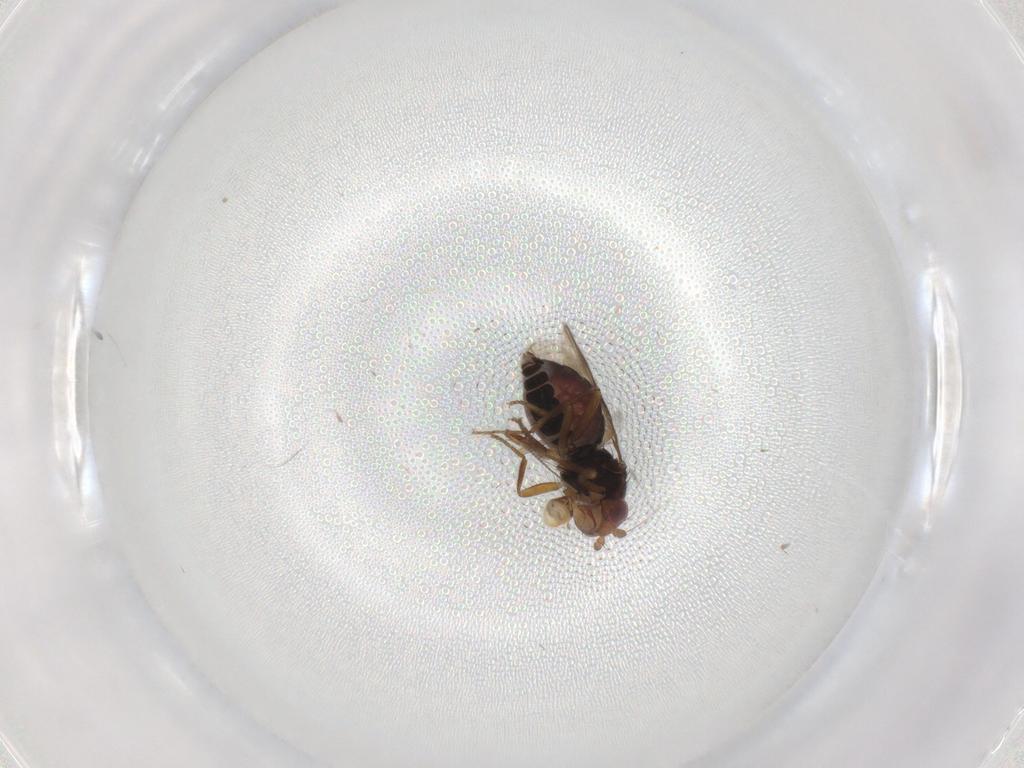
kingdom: Animalia
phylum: Arthropoda
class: Insecta
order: Diptera
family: Sphaeroceridae
